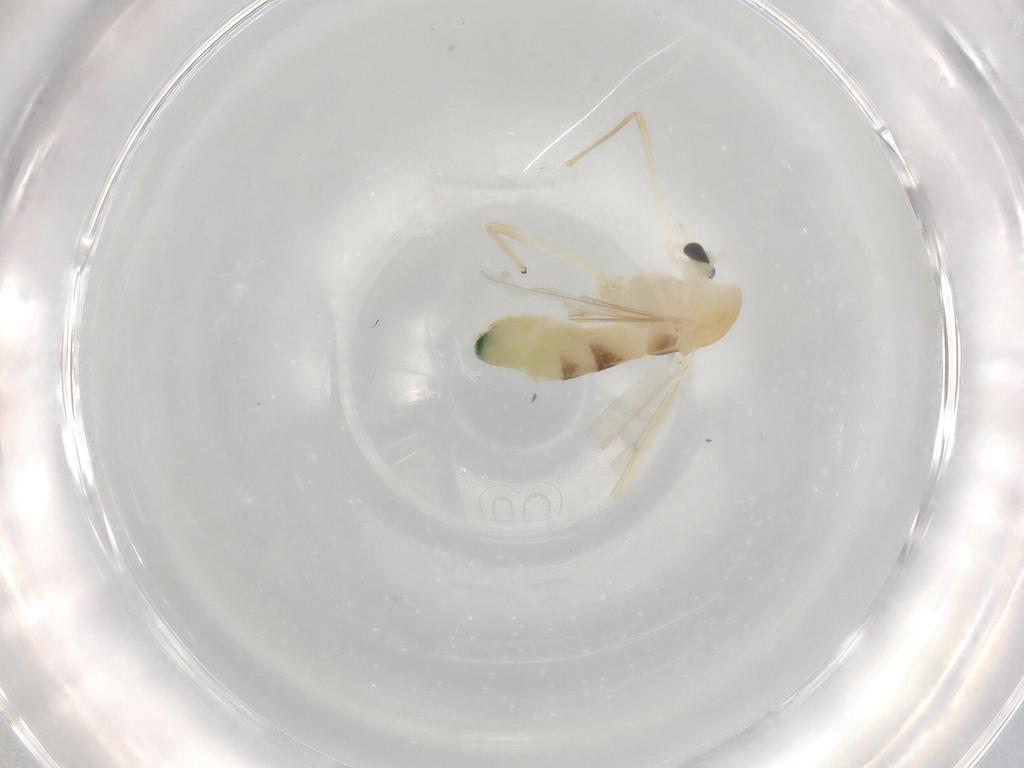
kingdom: Animalia
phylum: Arthropoda
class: Insecta
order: Diptera
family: Chironomidae
